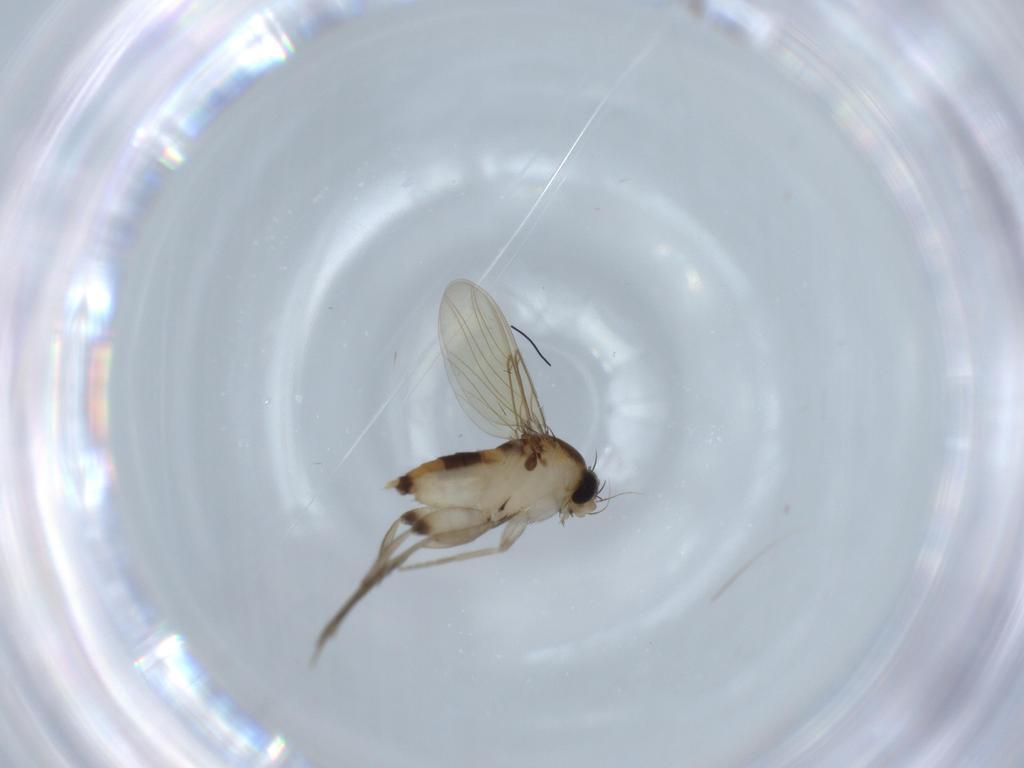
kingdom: Animalia
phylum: Arthropoda
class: Insecta
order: Diptera
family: Phoridae
